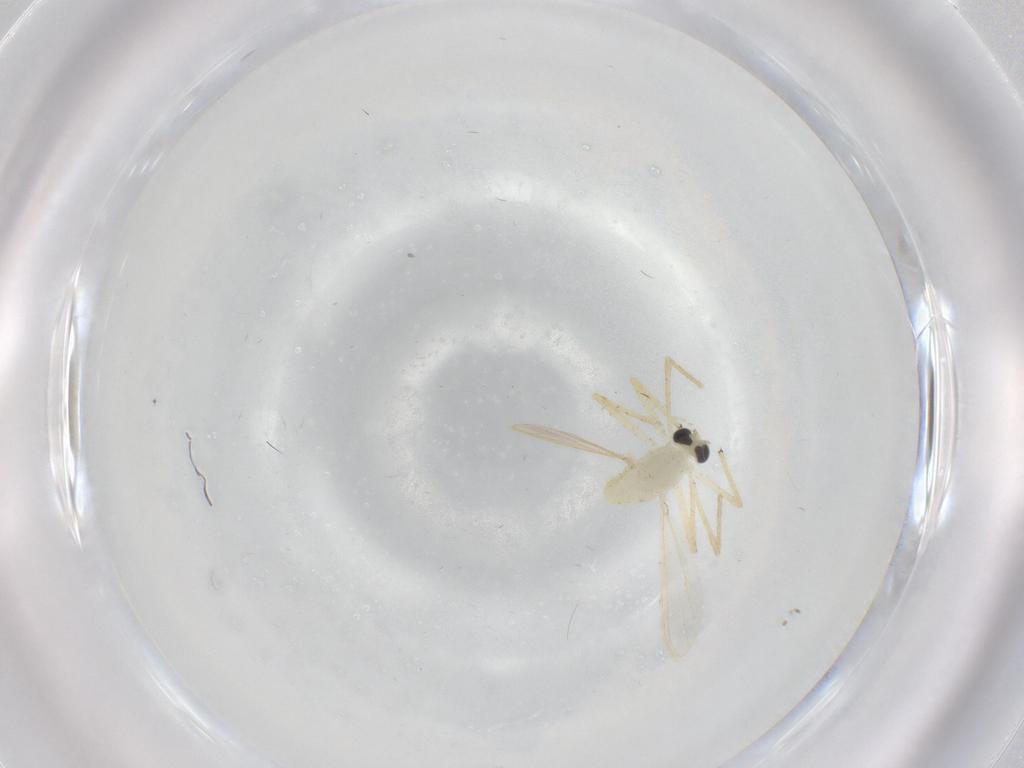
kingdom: Animalia
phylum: Arthropoda
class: Insecta
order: Diptera
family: Chironomidae
